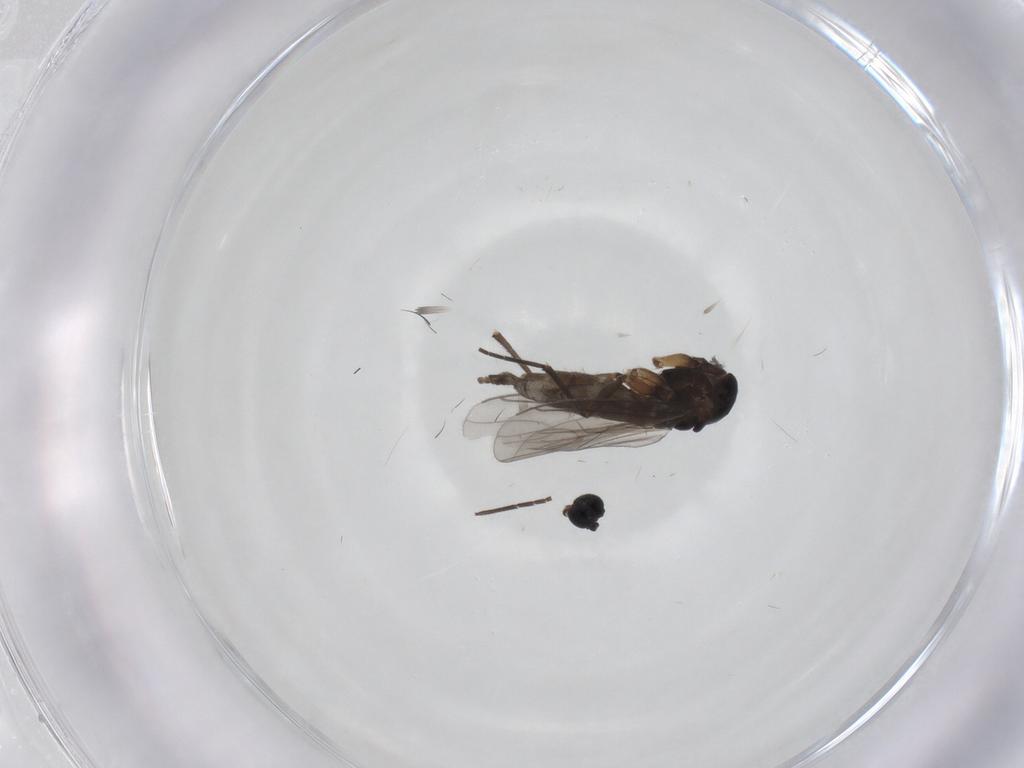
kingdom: Animalia
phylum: Arthropoda
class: Insecta
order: Diptera
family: Sciaridae
